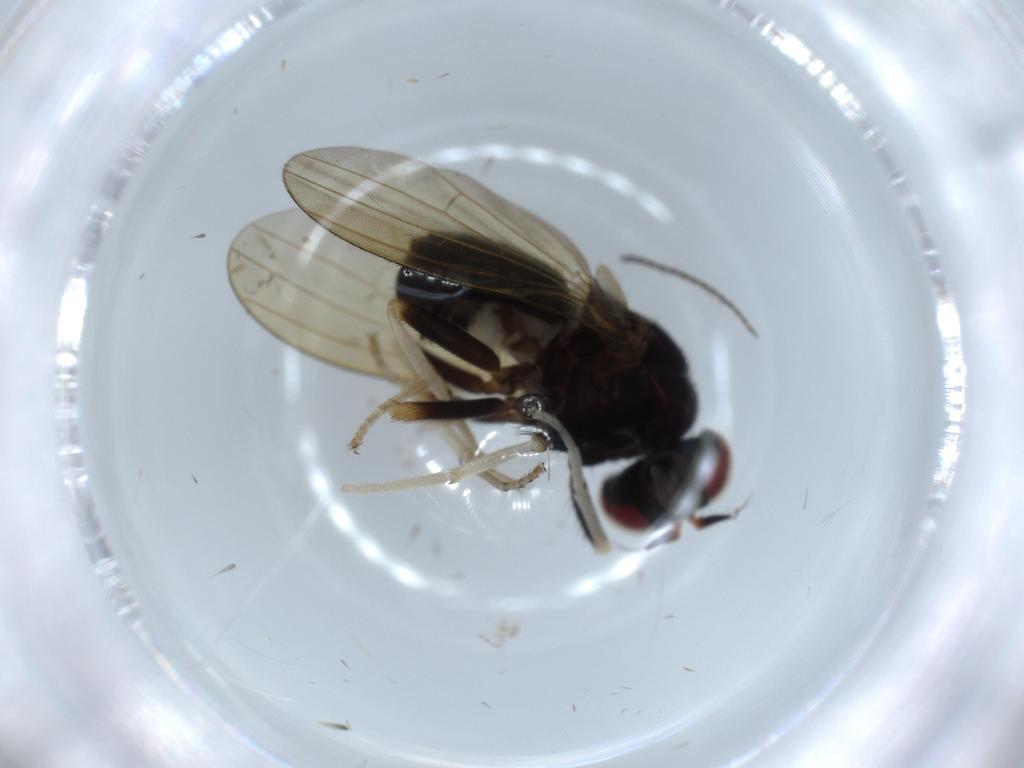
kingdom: Animalia
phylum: Arthropoda
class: Insecta
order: Diptera
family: Lauxaniidae
